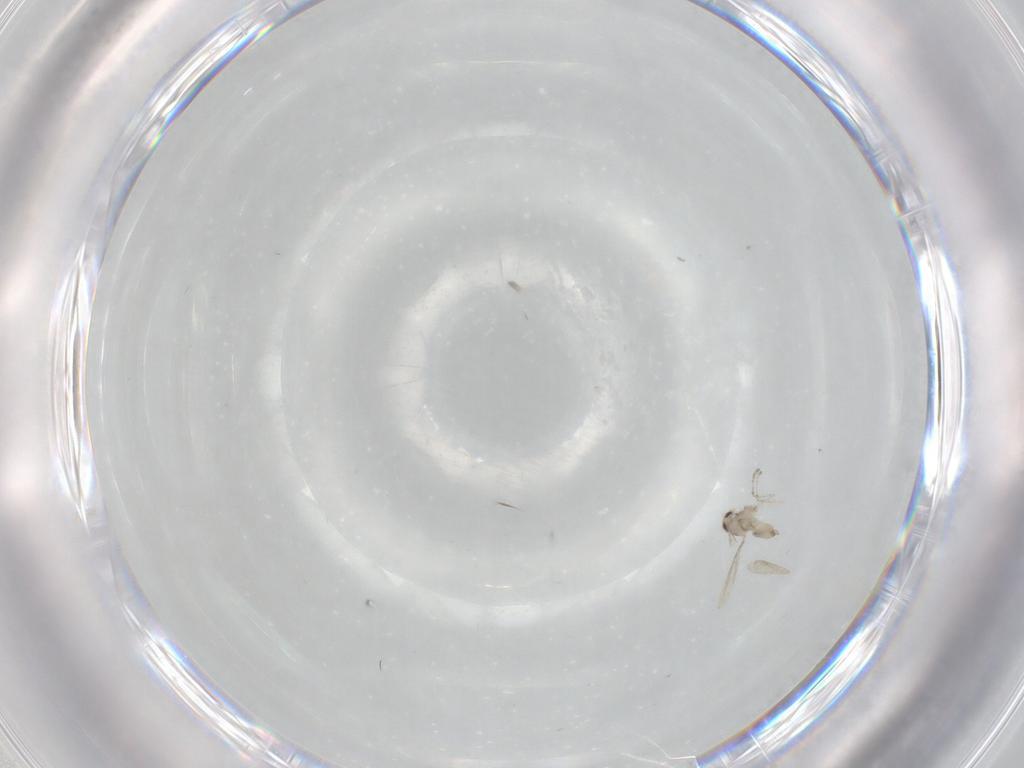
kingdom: Animalia
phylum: Arthropoda
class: Insecta
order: Diptera
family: Cecidomyiidae
